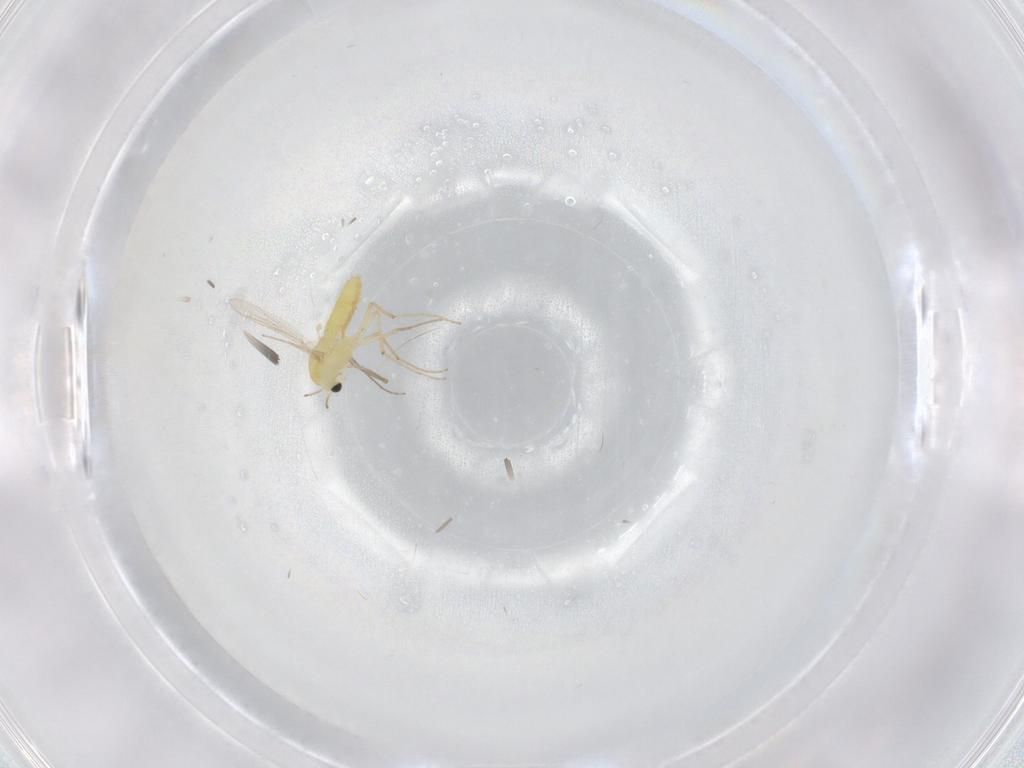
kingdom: Animalia
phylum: Arthropoda
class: Insecta
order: Diptera
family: Chironomidae
